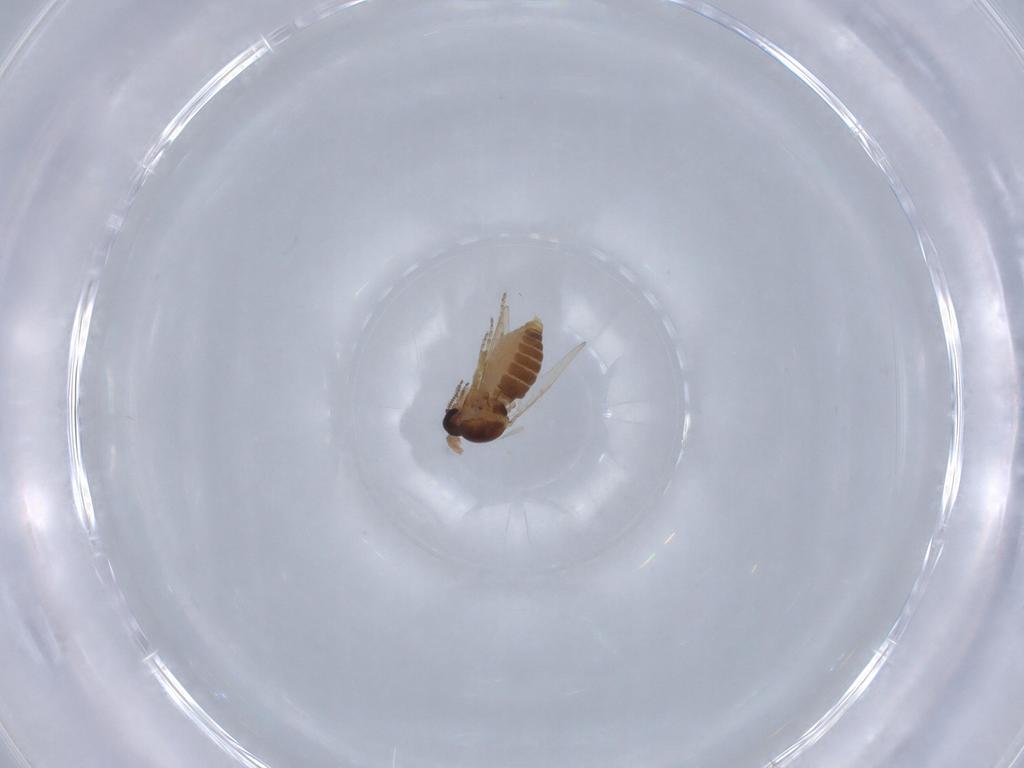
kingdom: Animalia
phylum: Arthropoda
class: Insecta
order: Diptera
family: Ceratopogonidae
